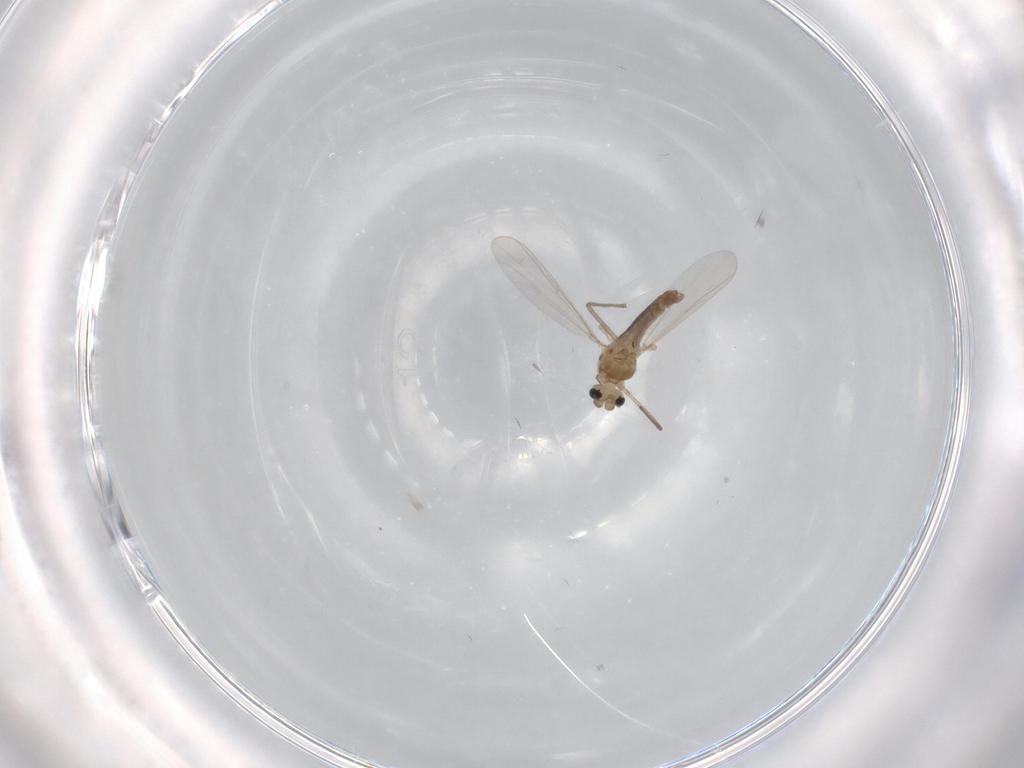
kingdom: Animalia
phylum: Arthropoda
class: Insecta
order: Diptera
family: Chironomidae
